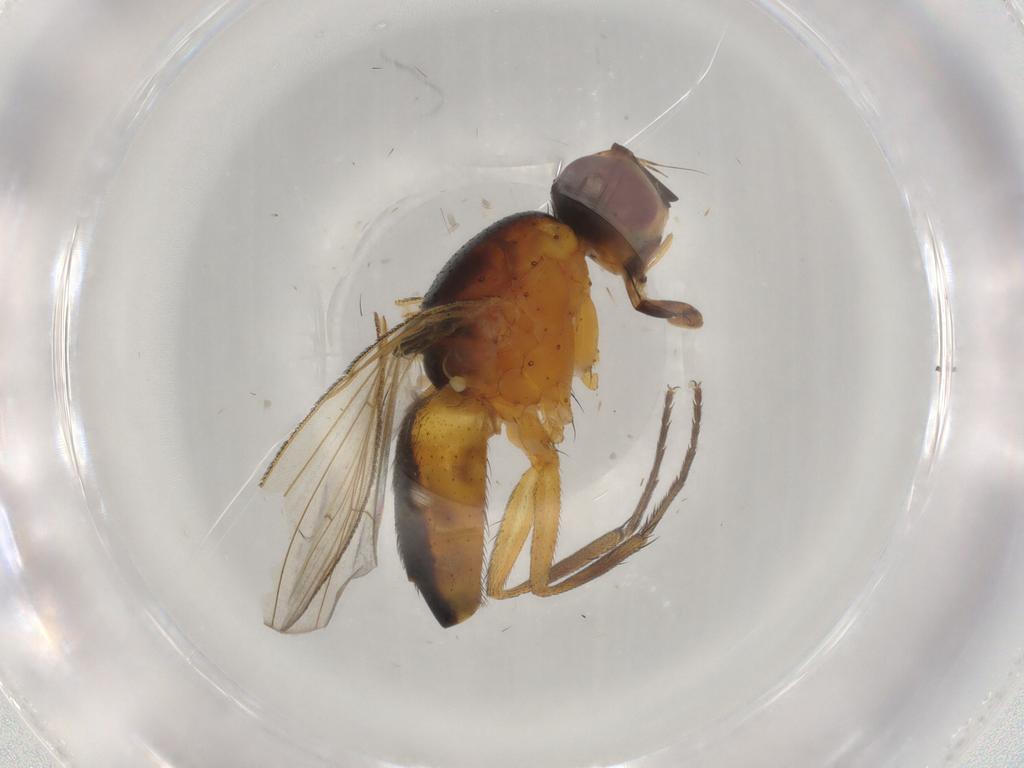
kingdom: Animalia
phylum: Arthropoda
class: Insecta
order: Diptera
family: Muscidae
